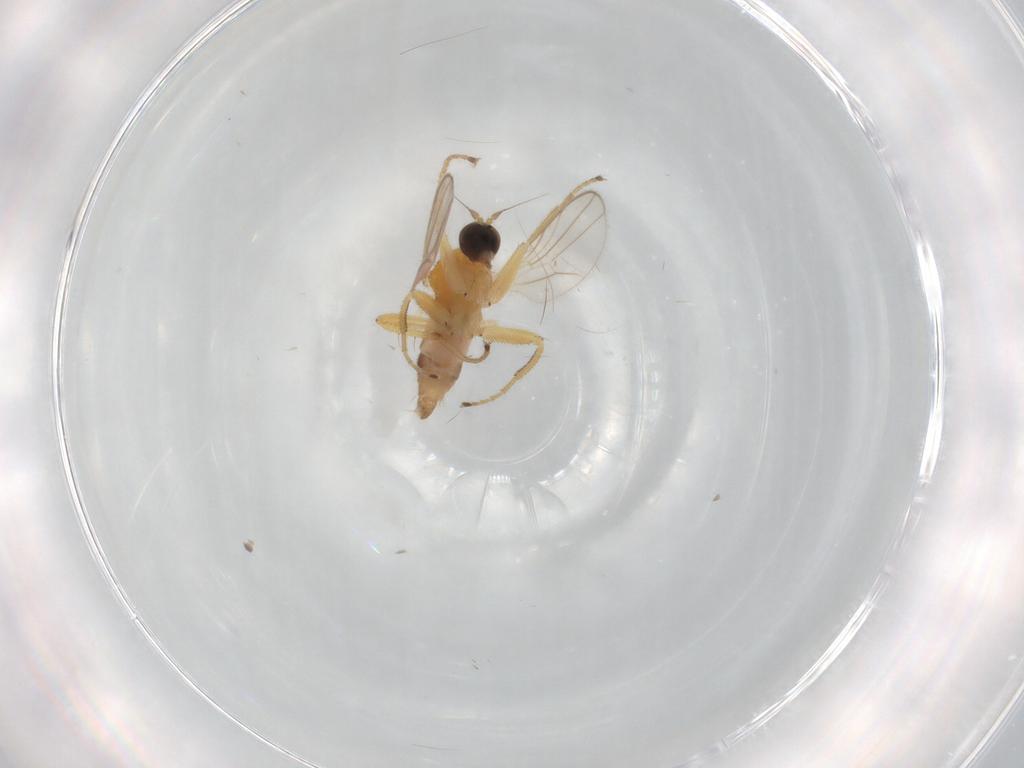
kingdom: Animalia
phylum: Arthropoda
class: Insecta
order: Diptera
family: Hybotidae
